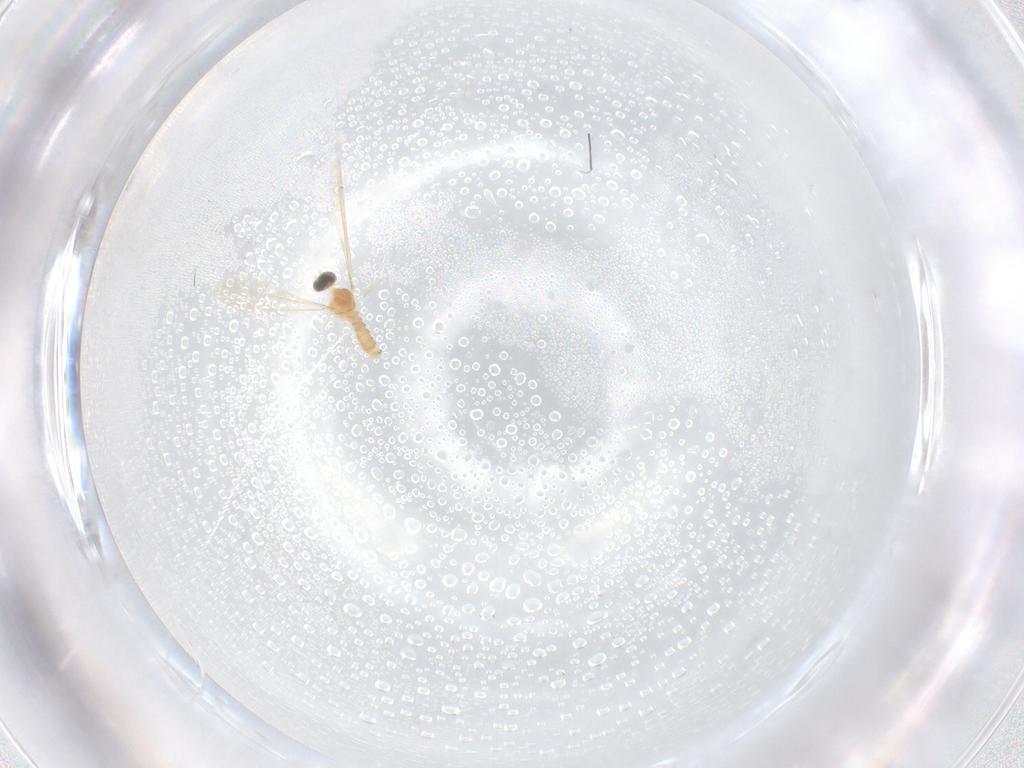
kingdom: Animalia
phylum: Arthropoda
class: Insecta
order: Diptera
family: Cecidomyiidae
